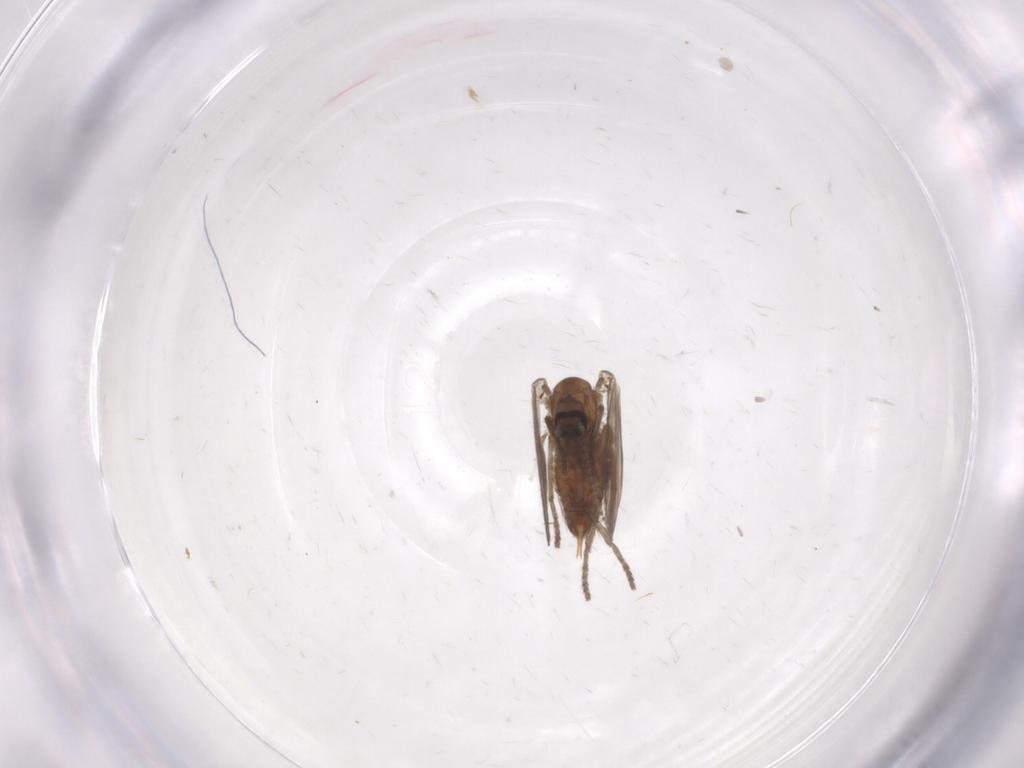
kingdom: Animalia
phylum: Arthropoda
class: Insecta
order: Diptera
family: Psychodidae
